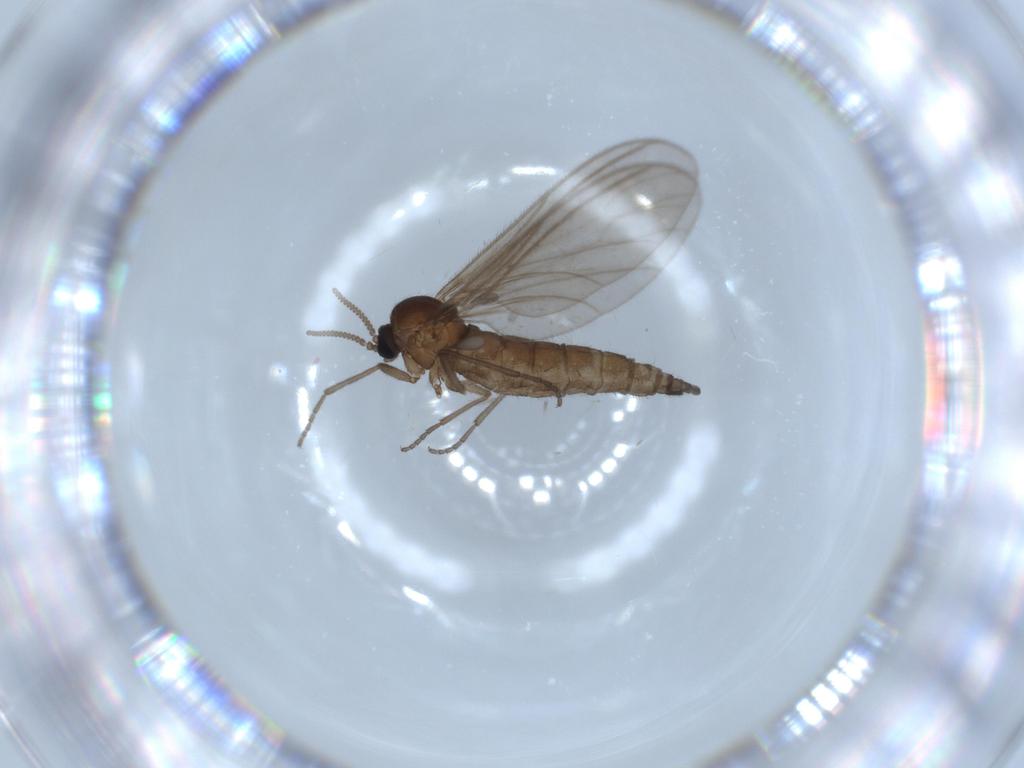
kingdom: Animalia
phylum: Arthropoda
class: Insecta
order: Diptera
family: Sciaridae
